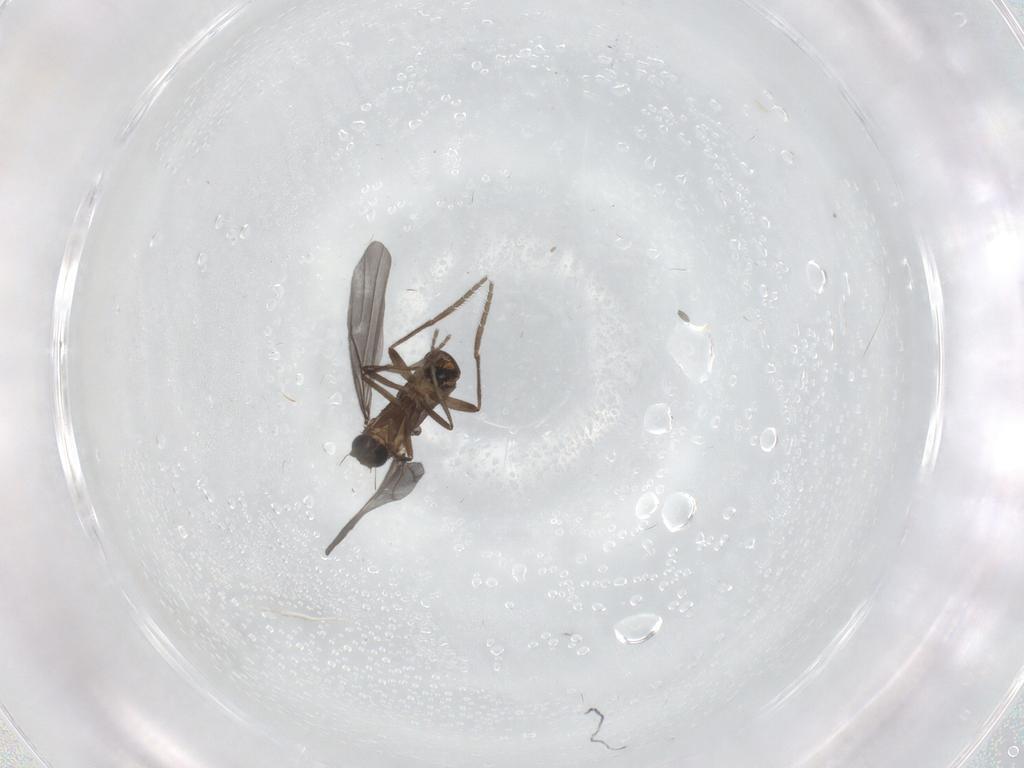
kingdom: Animalia
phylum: Arthropoda
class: Insecta
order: Diptera
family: Phoridae
